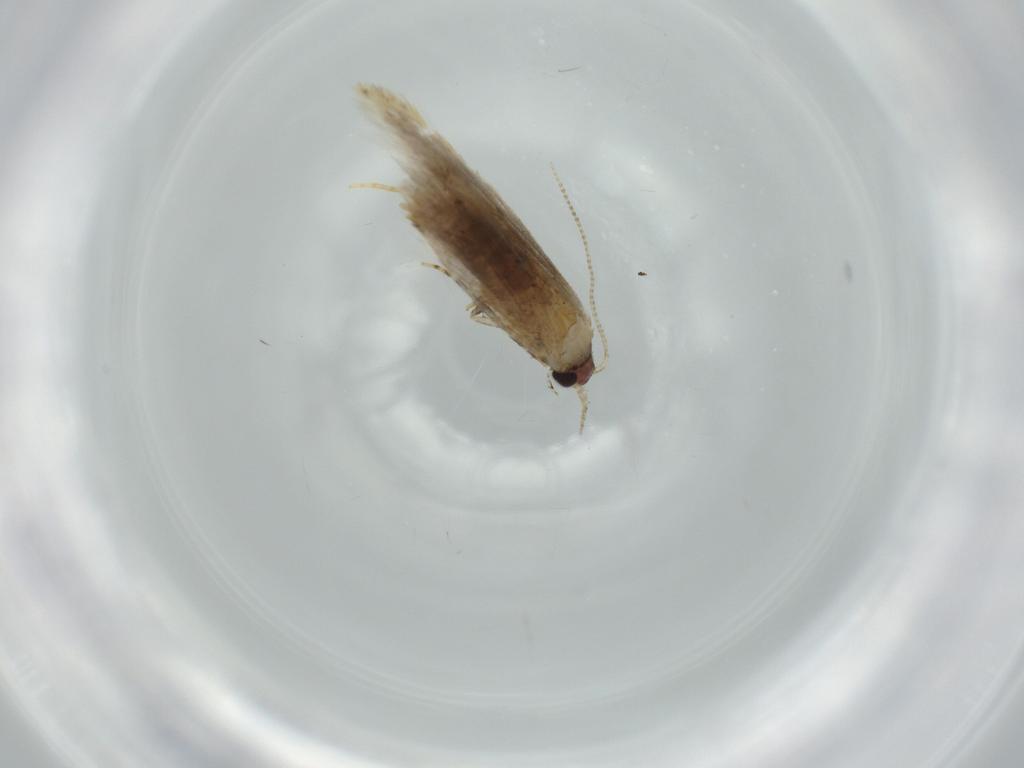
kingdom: Animalia
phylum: Arthropoda
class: Insecta
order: Lepidoptera
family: Tineidae
